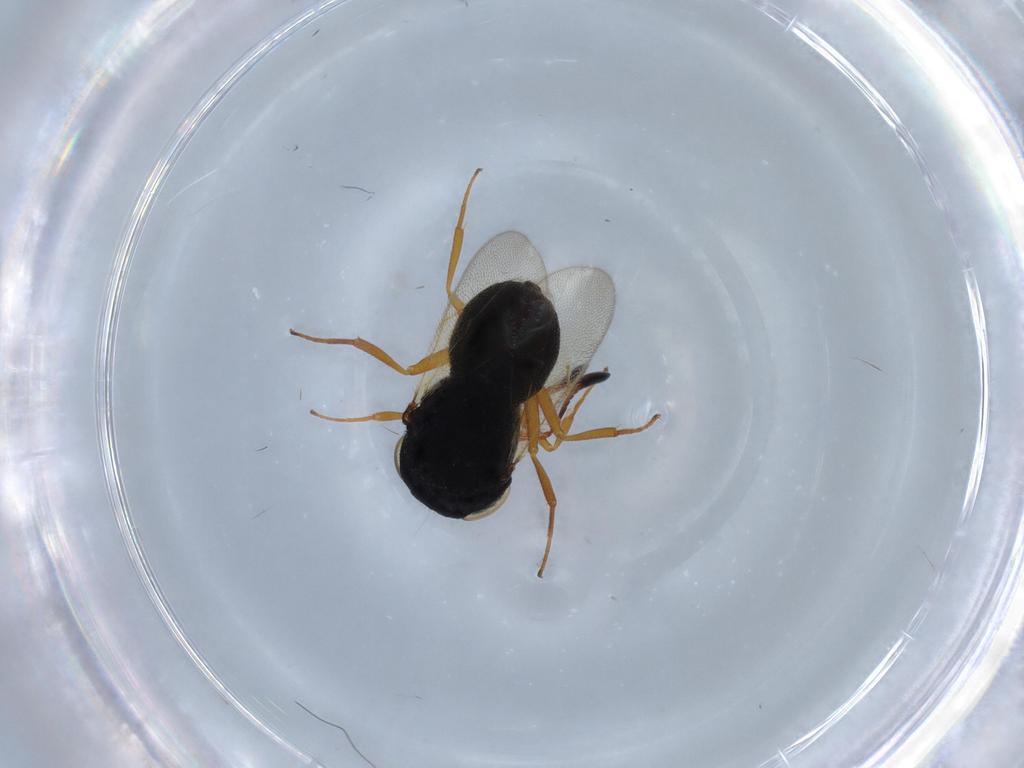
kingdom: Animalia
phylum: Arthropoda
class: Insecta
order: Hymenoptera
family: Scelionidae
